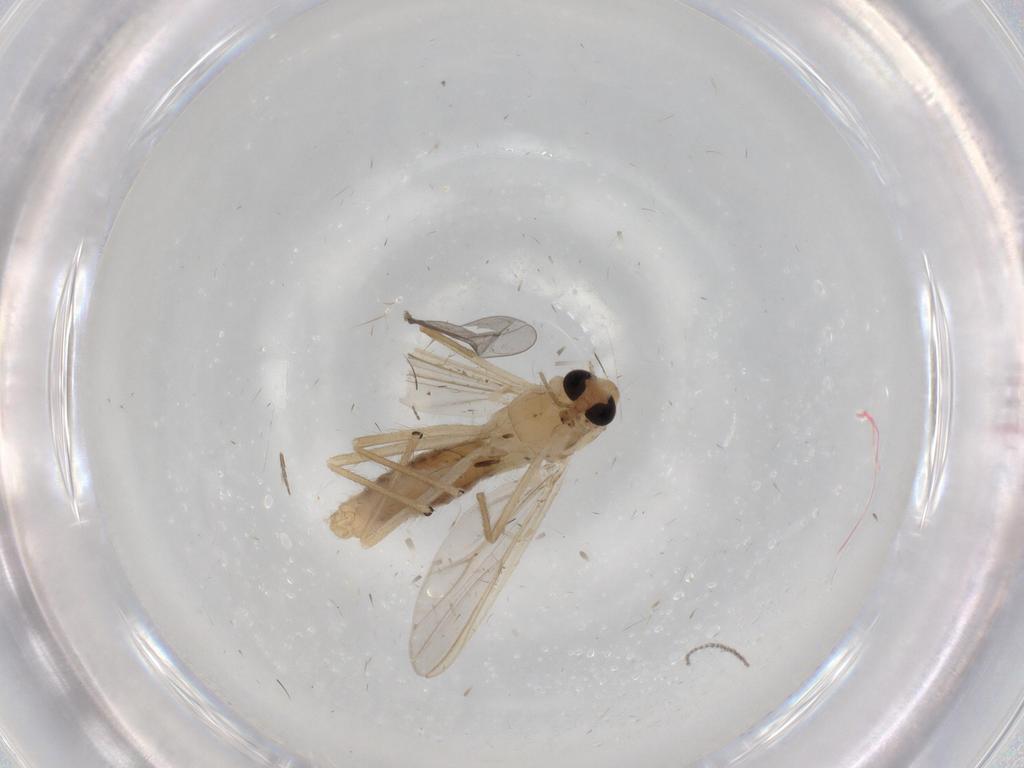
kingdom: Animalia
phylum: Arthropoda
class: Insecta
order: Diptera
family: Chironomidae
